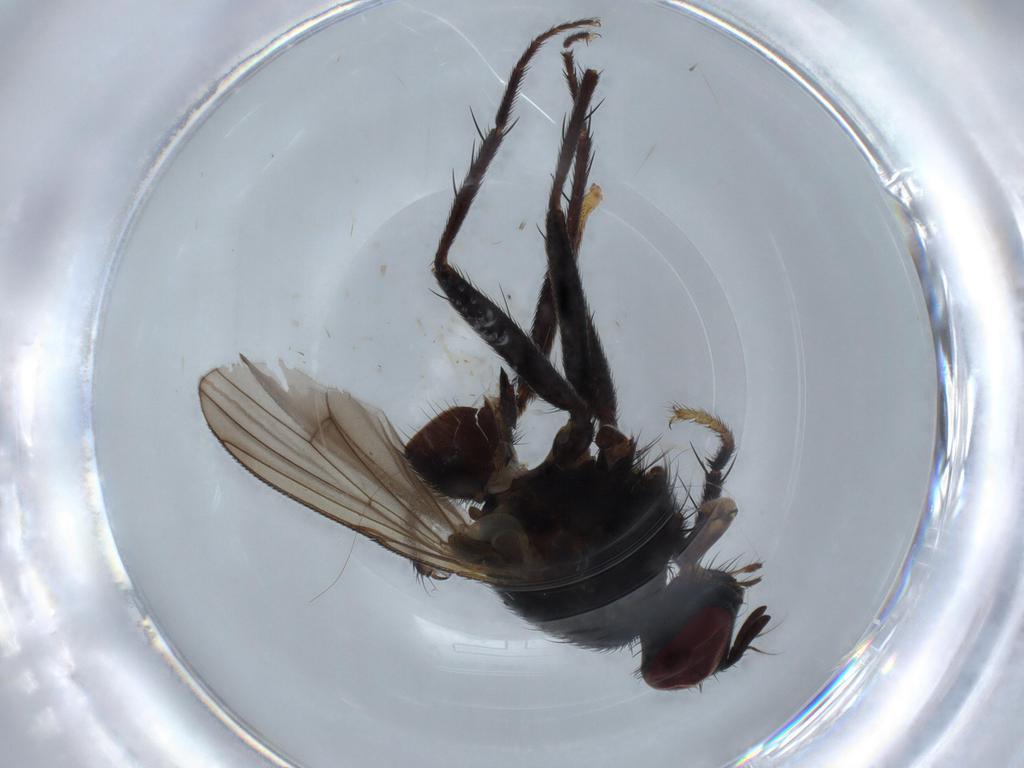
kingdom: Animalia
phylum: Arthropoda
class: Insecta
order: Diptera
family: Muscidae
